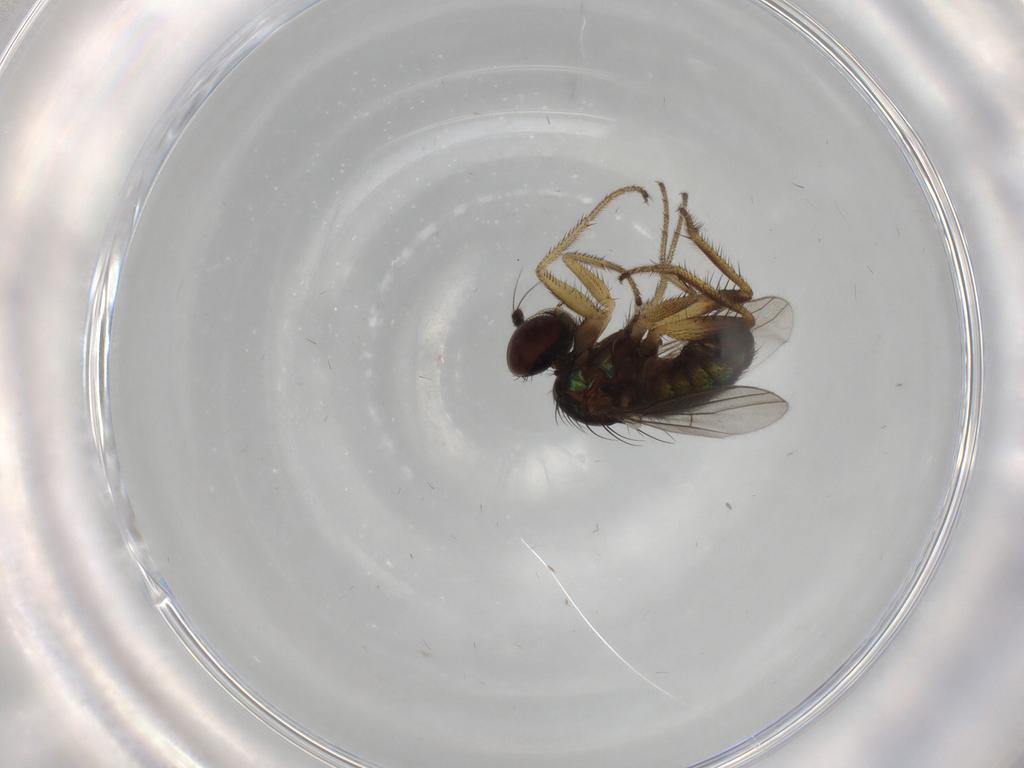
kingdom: Animalia
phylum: Arthropoda
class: Insecta
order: Diptera
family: Dolichopodidae
